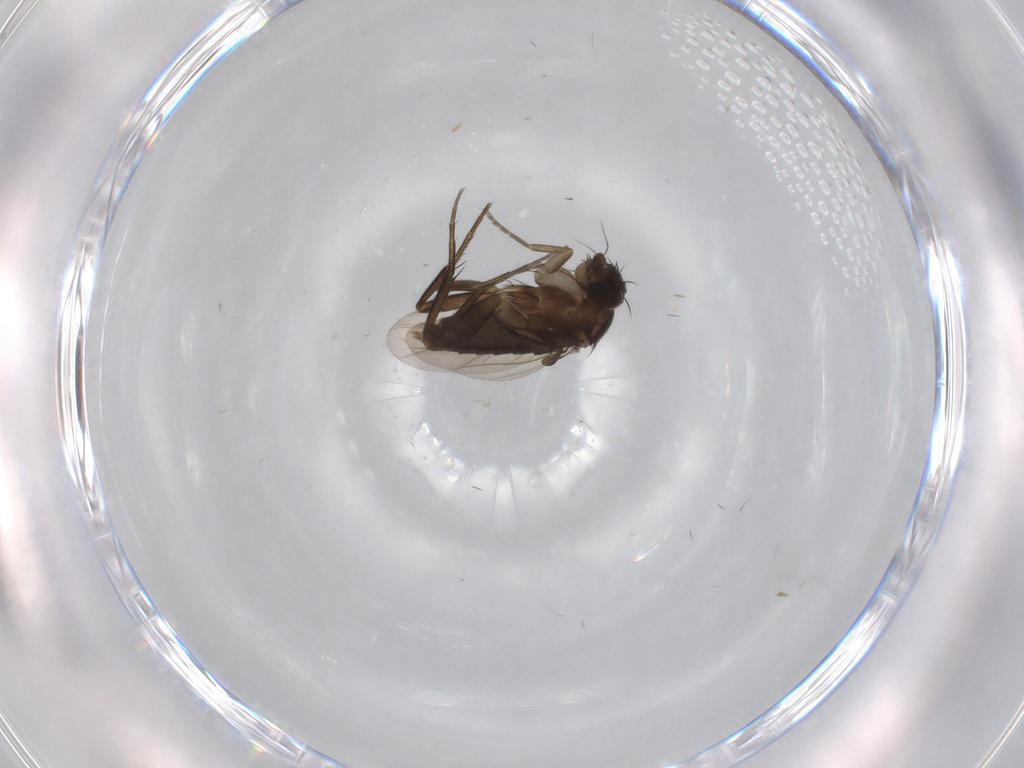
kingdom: Animalia
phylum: Arthropoda
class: Insecta
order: Diptera
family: Phoridae
